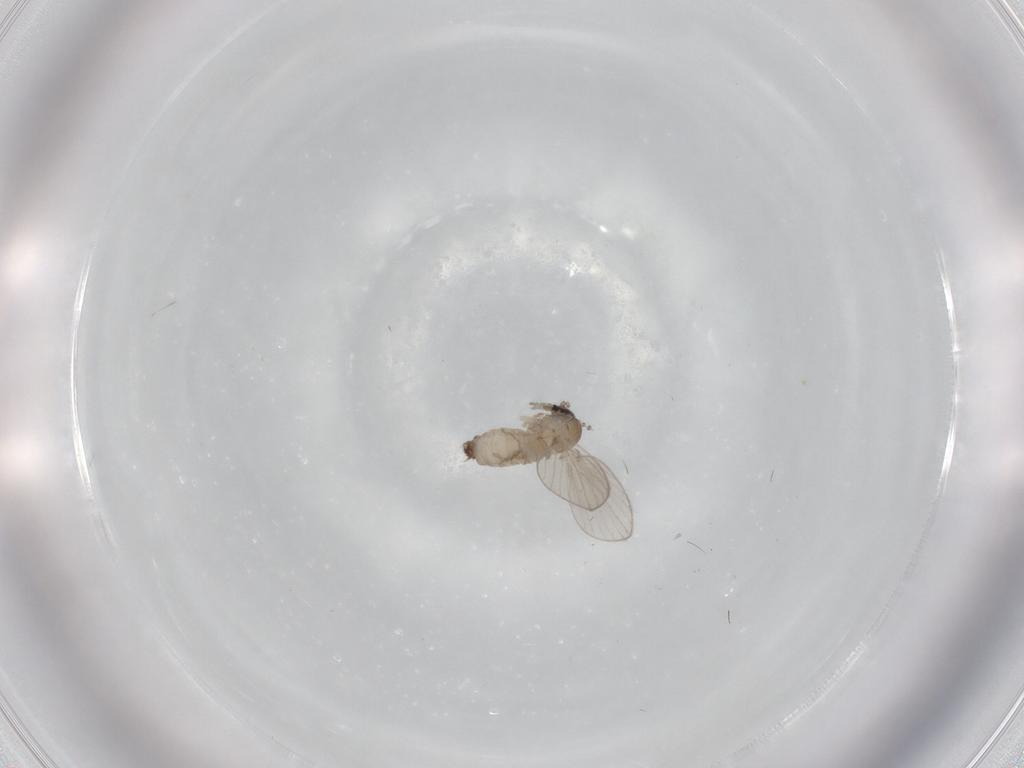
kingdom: Animalia
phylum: Arthropoda
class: Insecta
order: Diptera
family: Psychodidae
